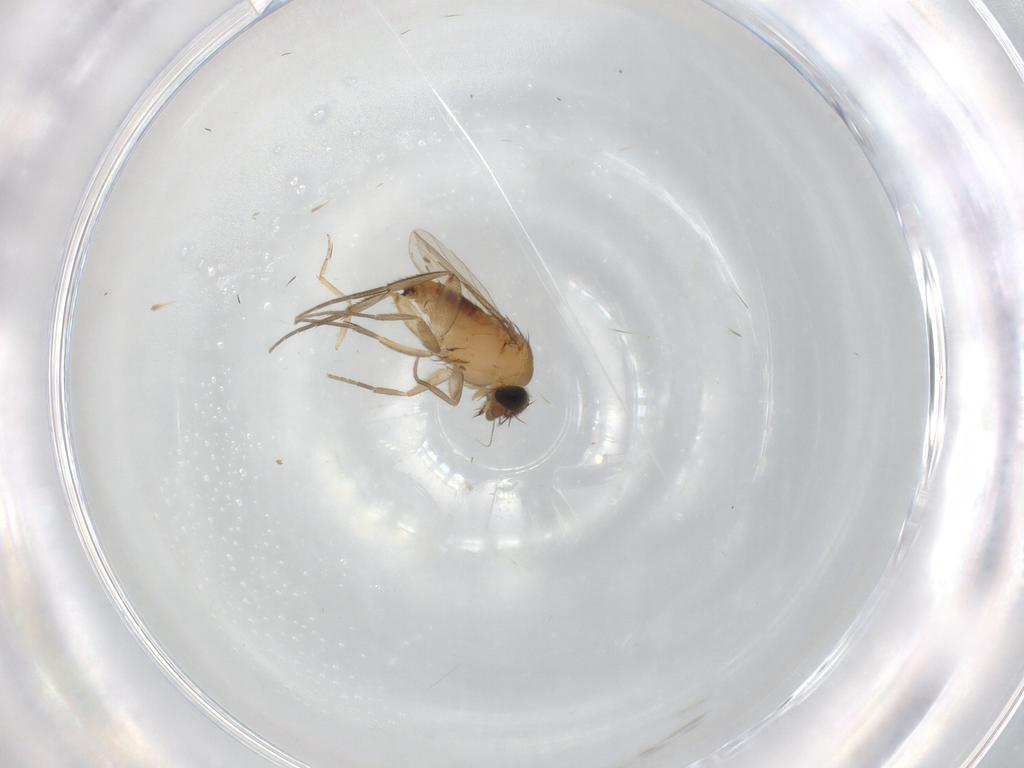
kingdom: Animalia
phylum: Arthropoda
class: Insecta
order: Diptera
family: Phoridae
